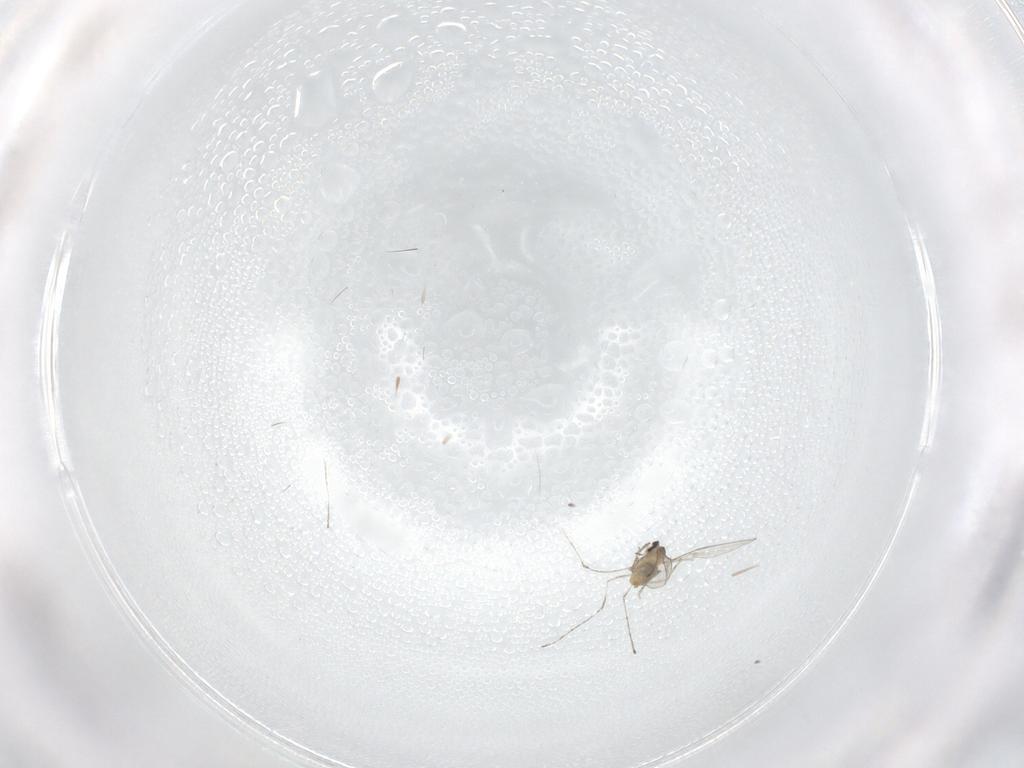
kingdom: Animalia
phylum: Arthropoda
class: Insecta
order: Diptera
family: Cecidomyiidae
